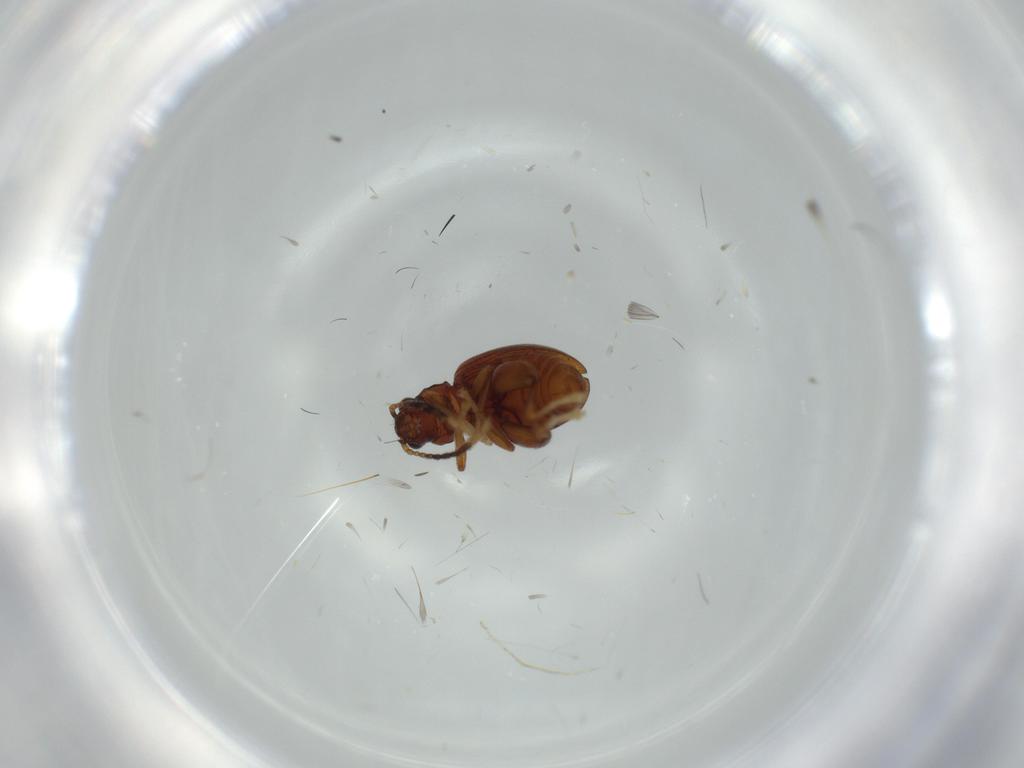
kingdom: Animalia
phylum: Arthropoda
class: Insecta
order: Coleoptera
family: Chrysomelidae
